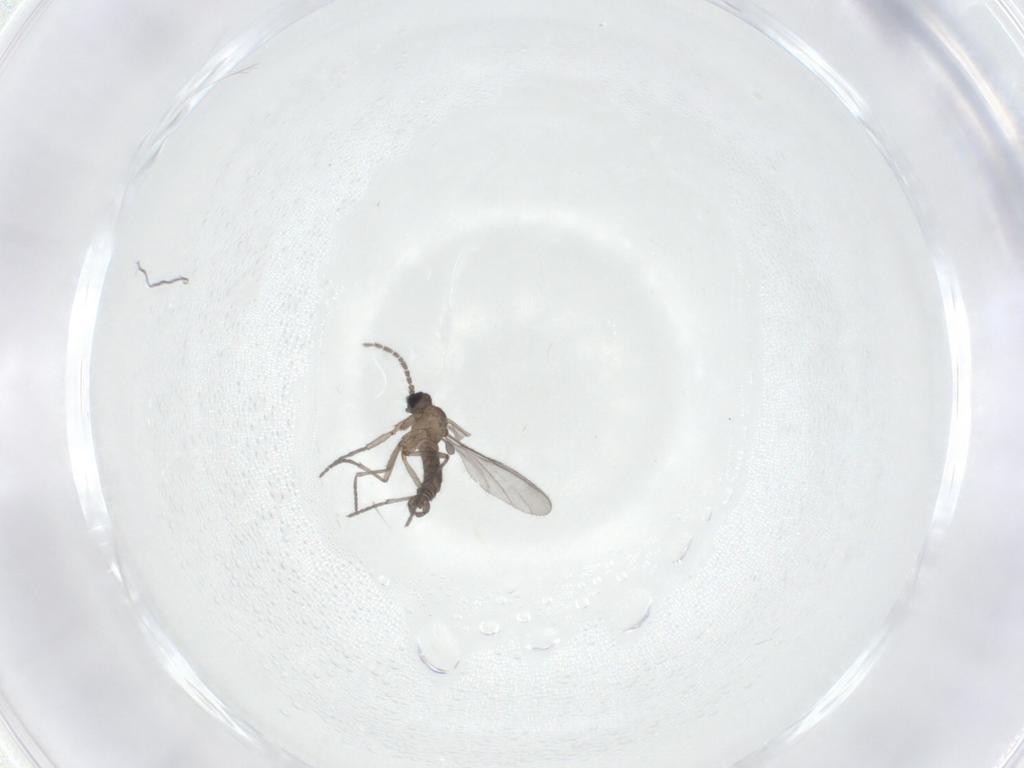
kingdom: Animalia
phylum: Arthropoda
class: Insecta
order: Diptera
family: Sciaridae
